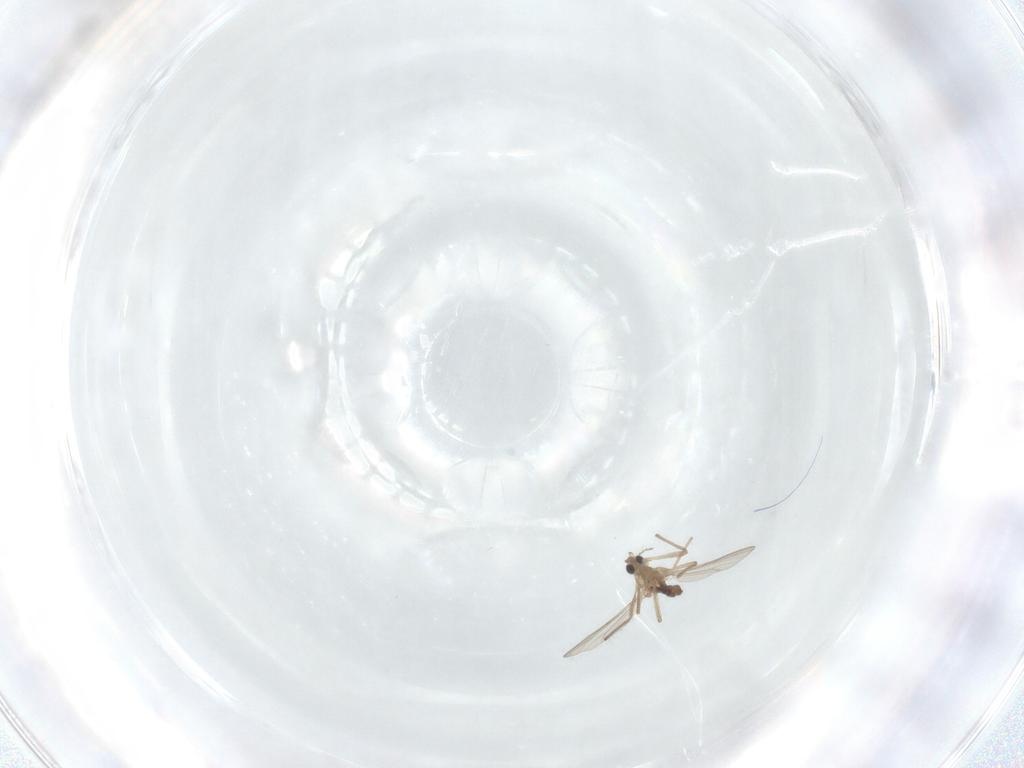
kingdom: Animalia
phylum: Arthropoda
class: Insecta
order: Diptera
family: Chironomidae
